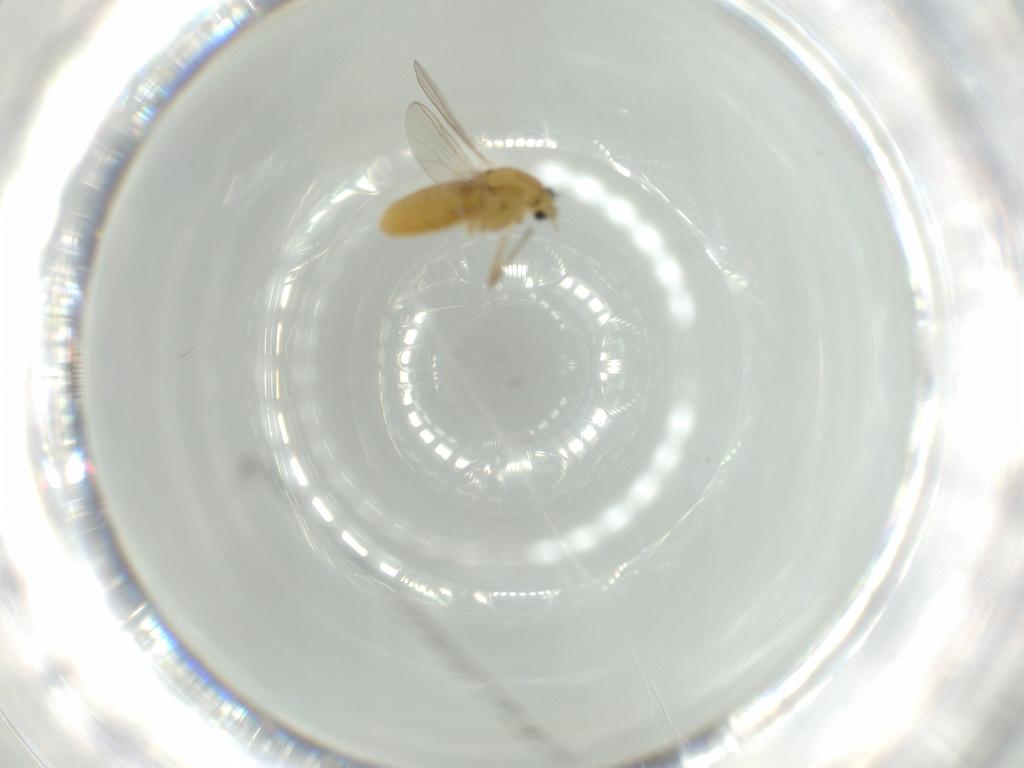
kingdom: Animalia
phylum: Arthropoda
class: Insecta
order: Diptera
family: Chironomidae
